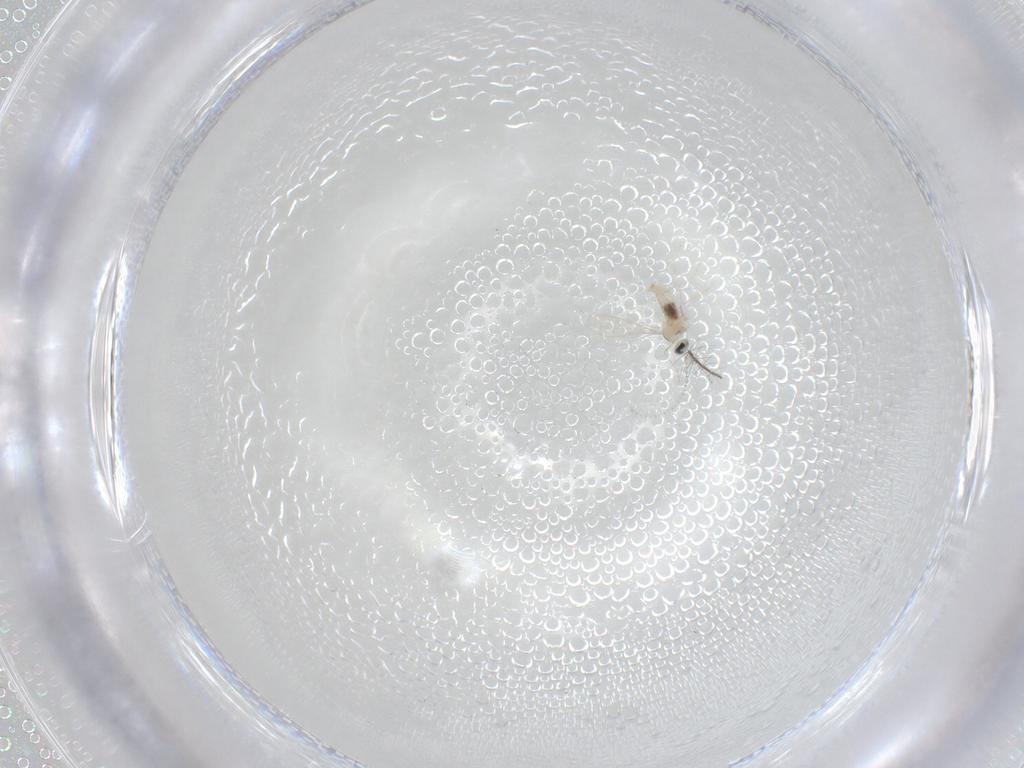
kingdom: Animalia
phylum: Arthropoda
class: Insecta
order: Diptera
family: Cecidomyiidae
